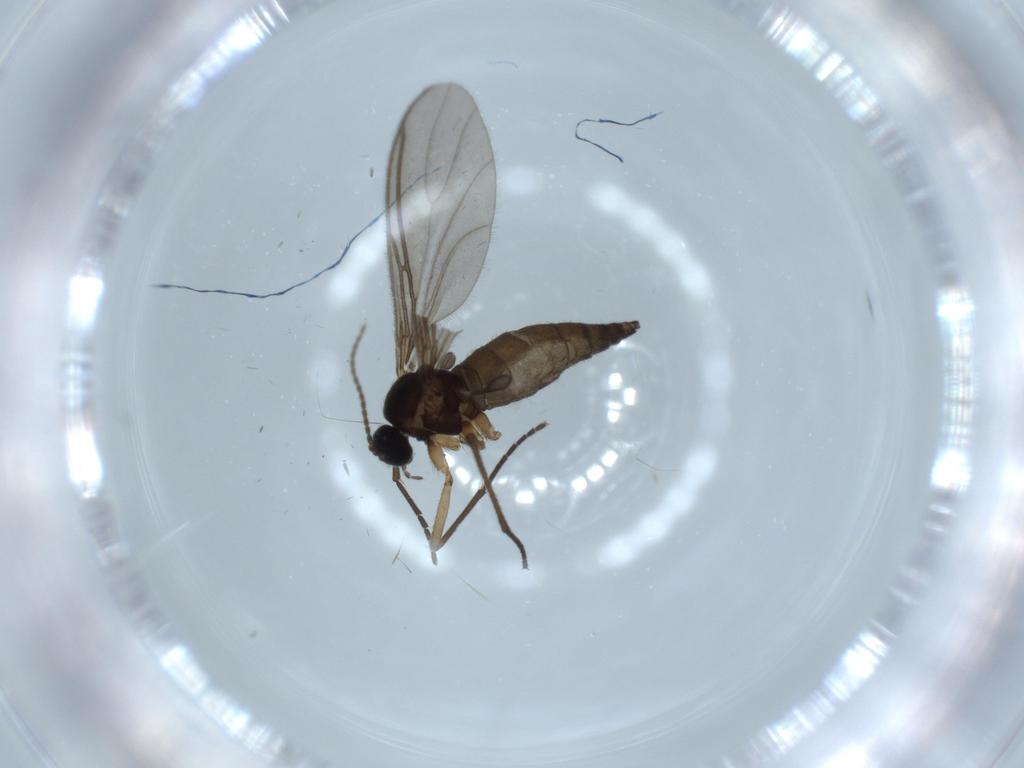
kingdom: Animalia
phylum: Arthropoda
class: Insecta
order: Diptera
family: Sciaridae
